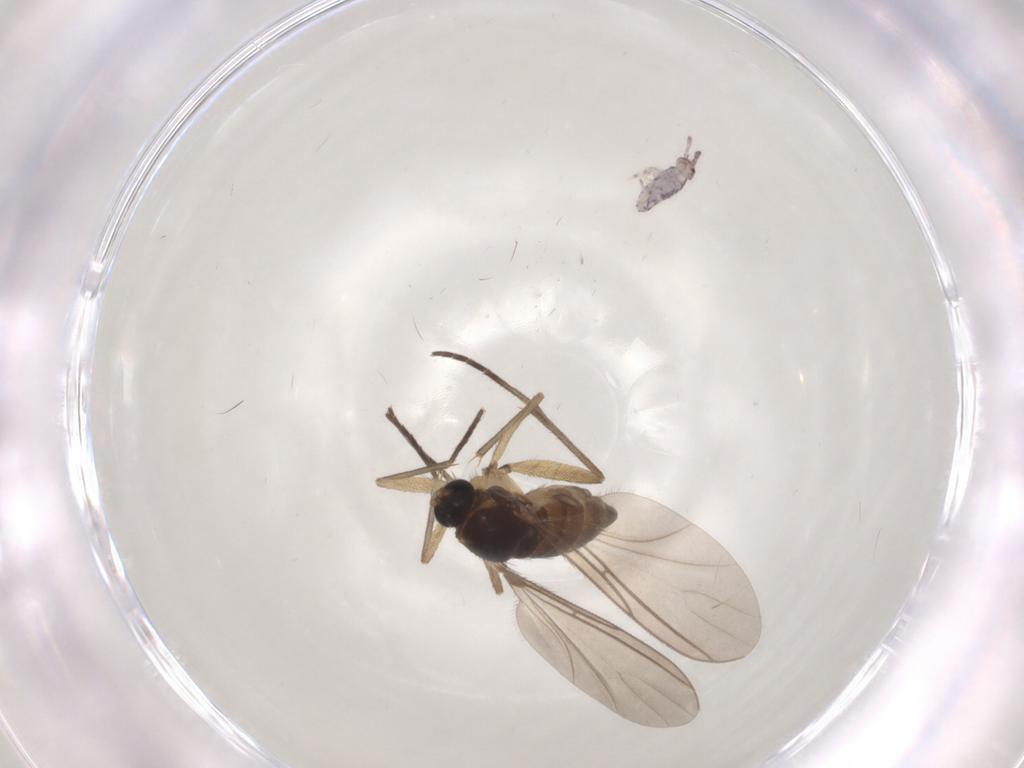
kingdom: Animalia
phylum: Arthropoda
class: Insecta
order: Diptera
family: Sciaridae
